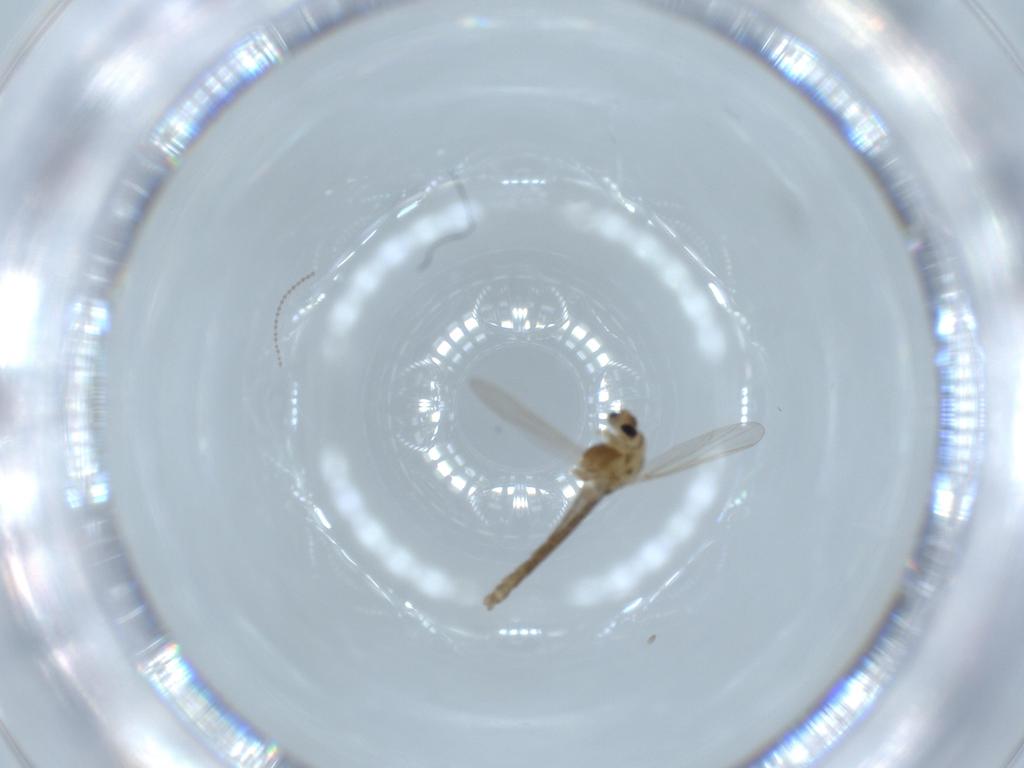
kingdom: Animalia
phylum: Arthropoda
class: Insecta
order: Diptera
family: Chironomidae
